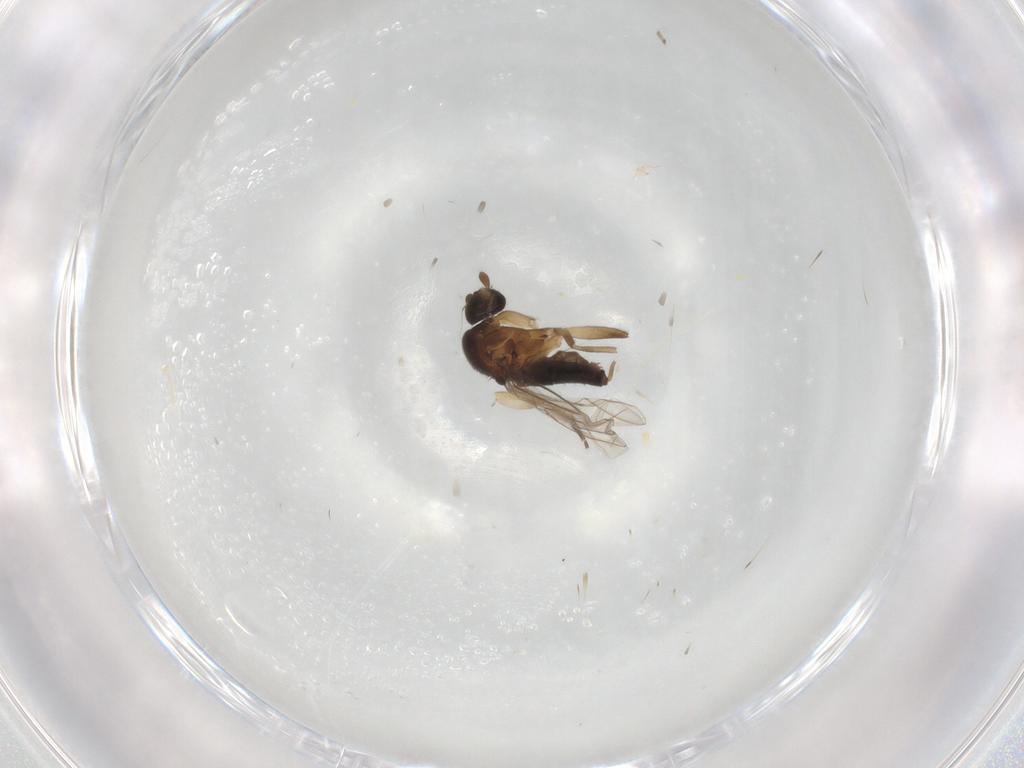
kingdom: Animalia
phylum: Arthropoda
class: Insecta
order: Diptera
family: Phoridae
